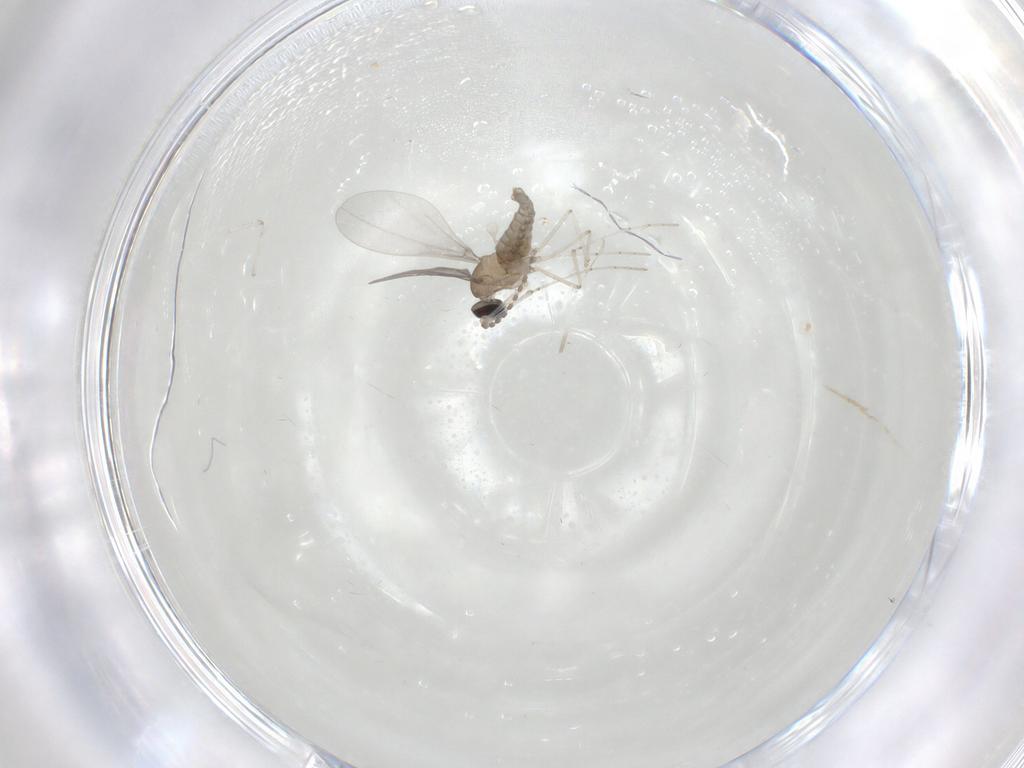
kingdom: Animalia
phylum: Arthropoda
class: Insecta
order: Diptera
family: Cecidomyiidae
